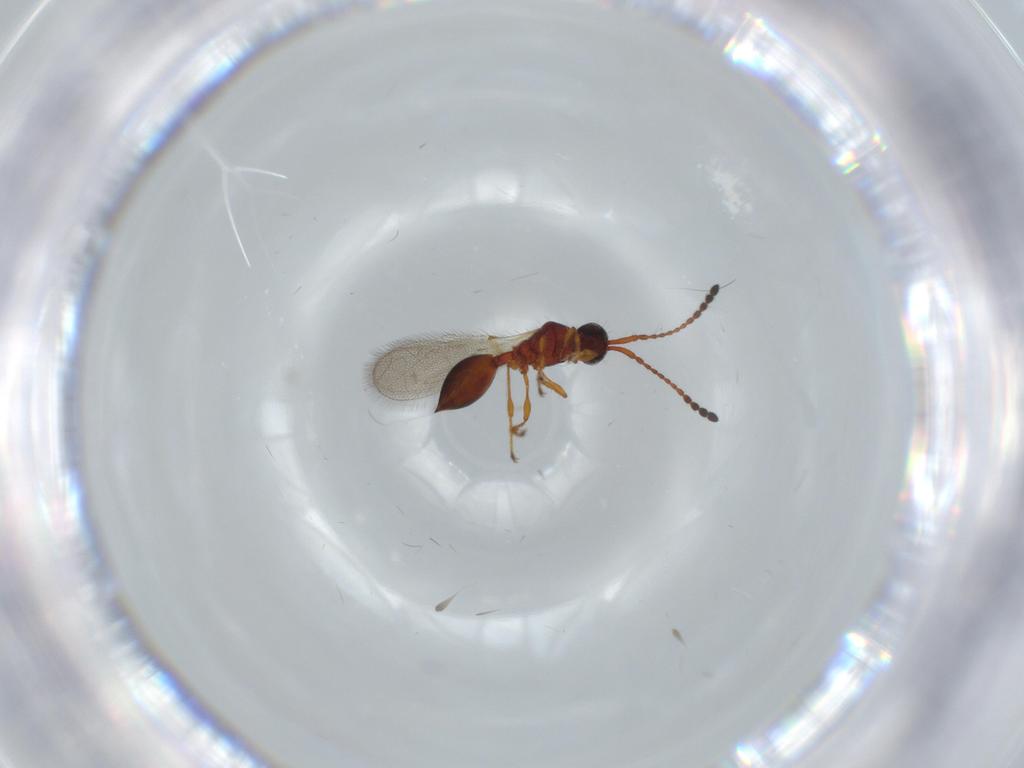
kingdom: Animalia
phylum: Arthropoda
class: Insecta
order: Hymenoptera
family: Diapriidae
